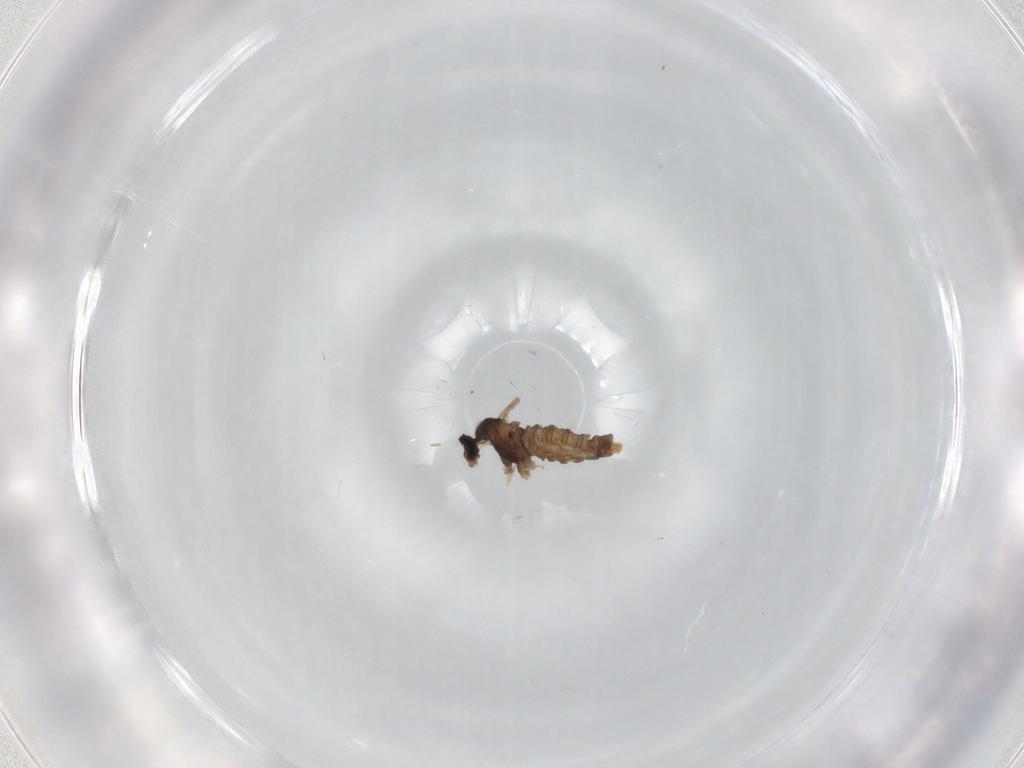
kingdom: Animalia
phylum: Arthropoda
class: Insecta
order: Diptera
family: Cecidomyiidae
